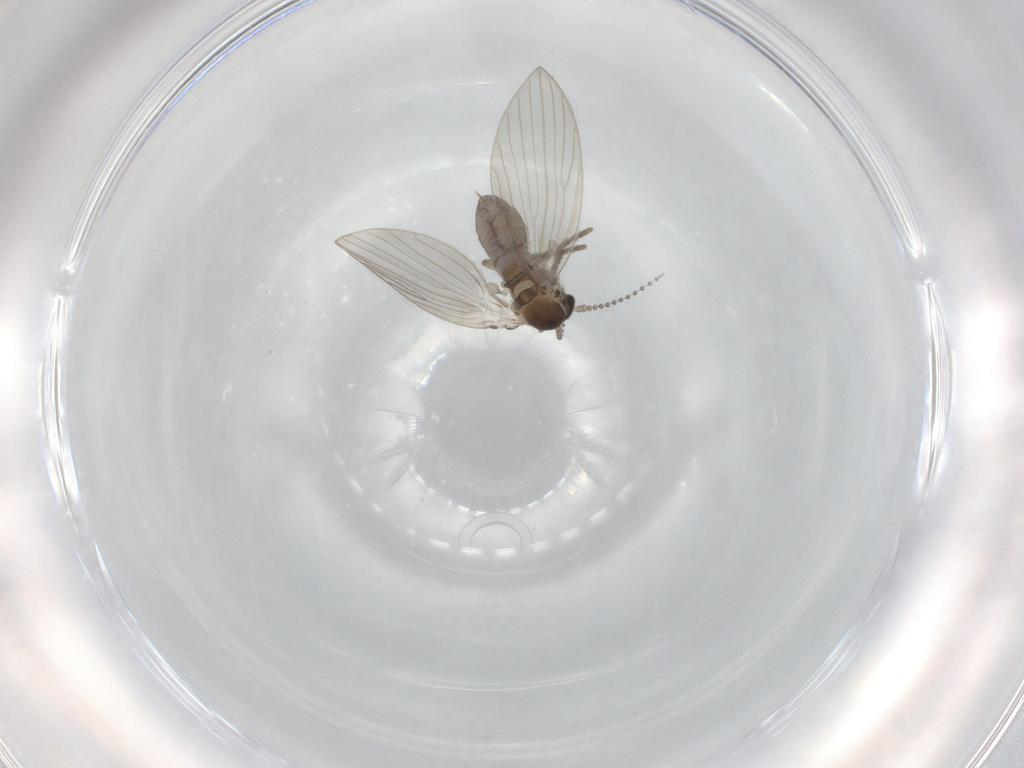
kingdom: Animalia
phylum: Arthropoda
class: Insecta
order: Diptera
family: Psychodidae
